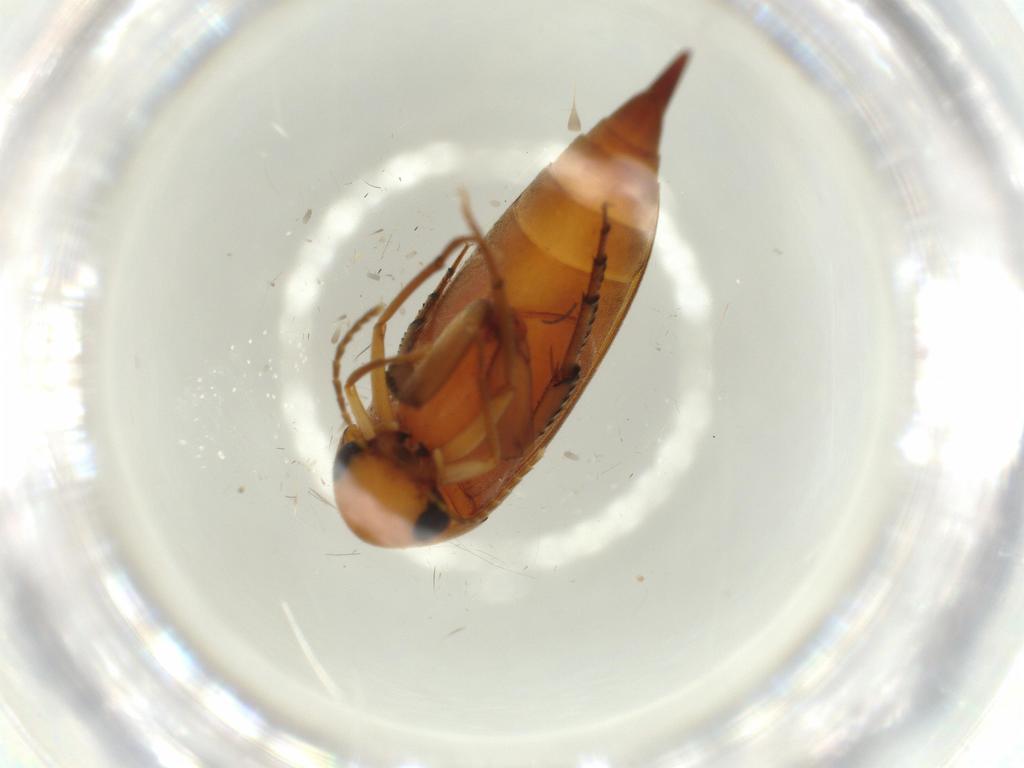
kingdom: Animalia
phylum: Arthropoda
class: Insecta
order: Coleoptera
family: Mordellidae
